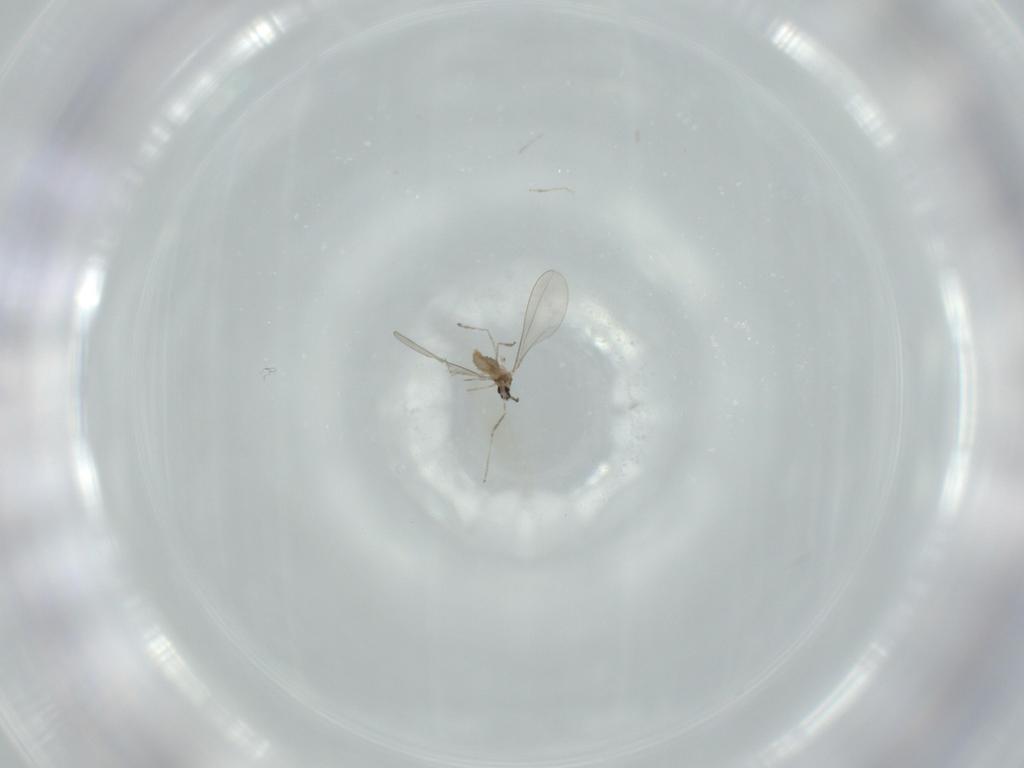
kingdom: Animalia
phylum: Arthropoda
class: Insecta
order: Diptera
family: Cecidomyiidae
